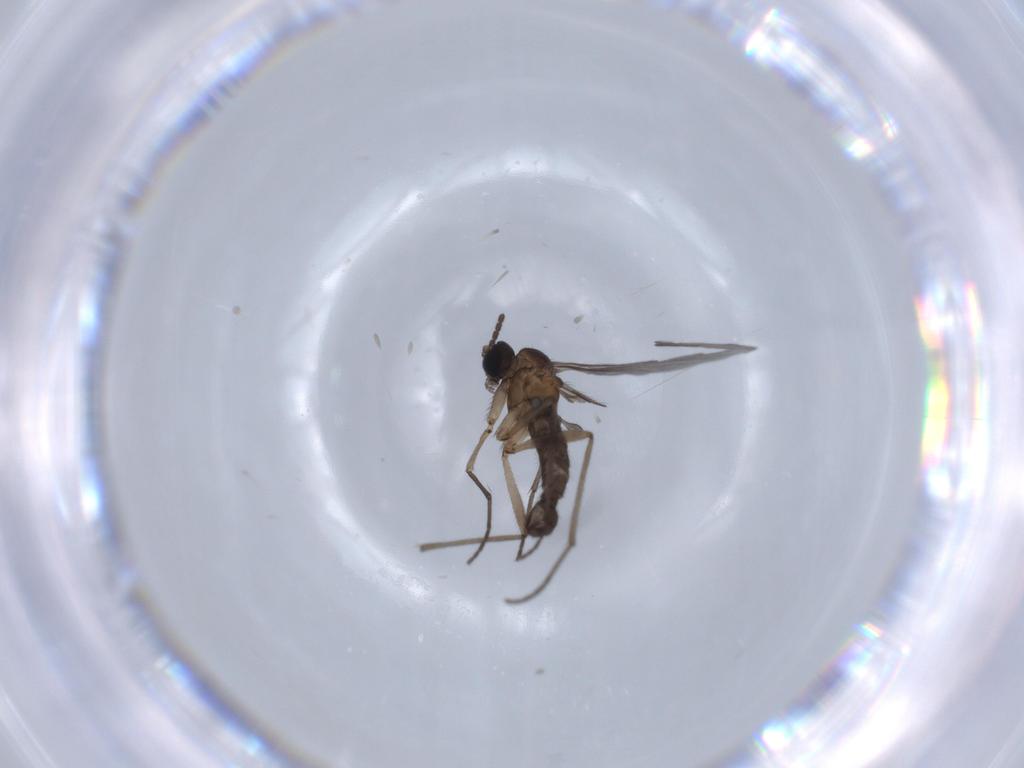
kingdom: Animalia
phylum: Arthropoda
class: Insecta
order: Diptera
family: Sciaridae
